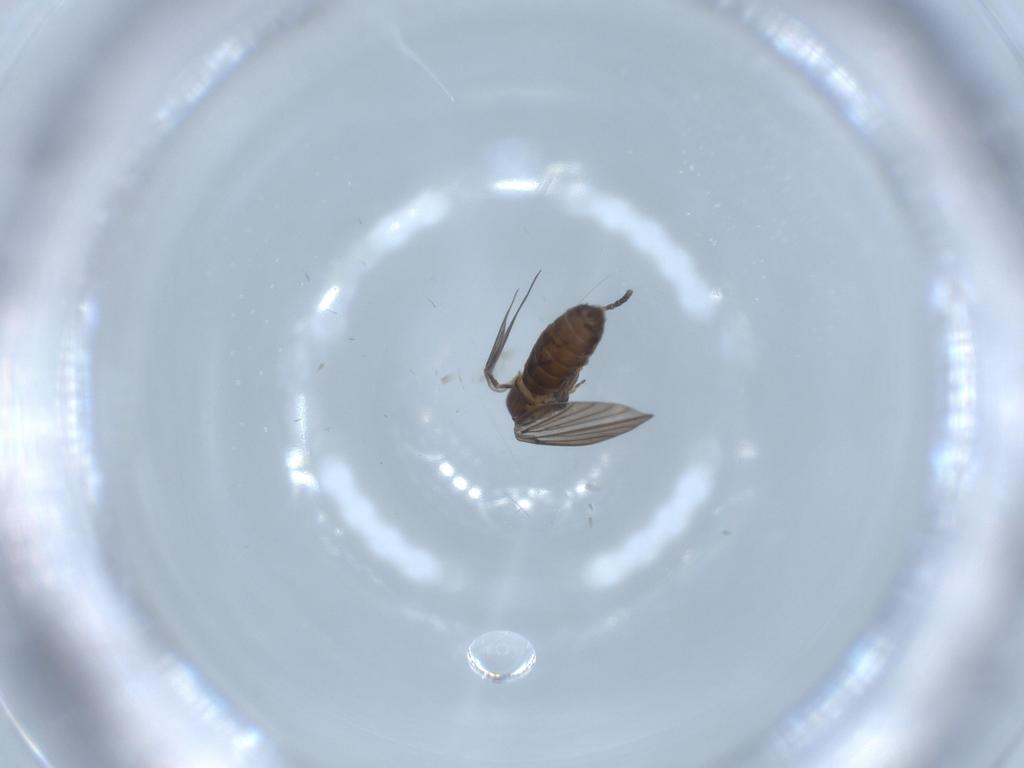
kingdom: Animalia
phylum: Arthropoda
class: Insecta
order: Diptera
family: Psychodidae
